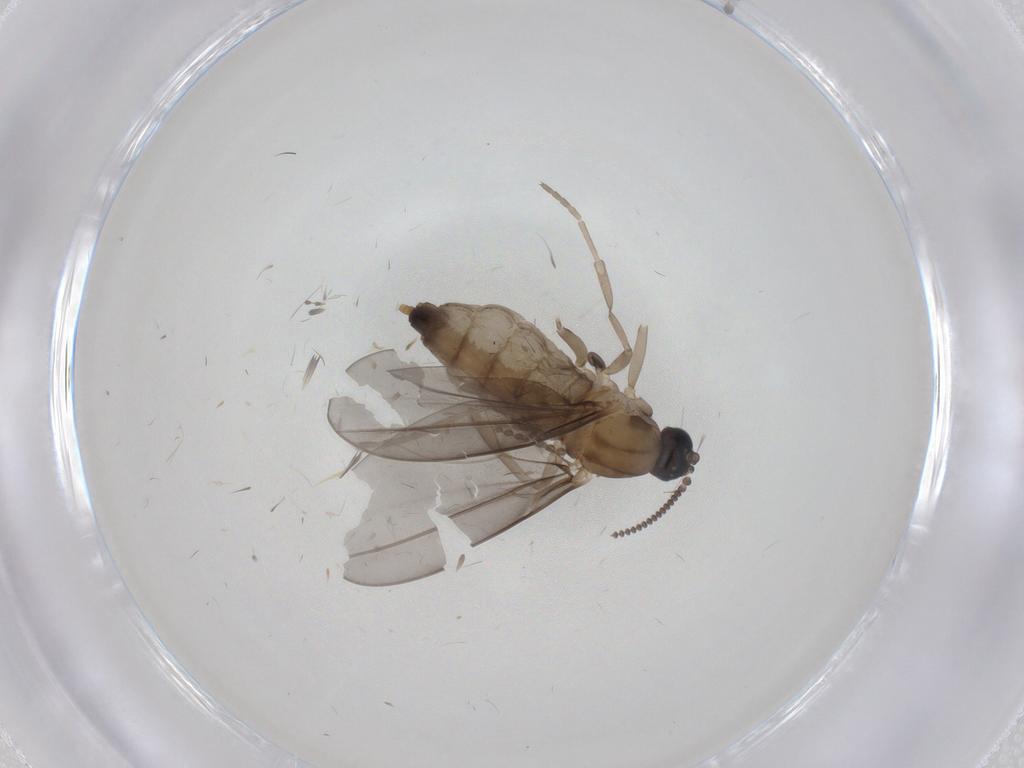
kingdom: Animalia
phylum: Arthropoda
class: Insecta
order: Diptera
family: Cecidomyiidae
